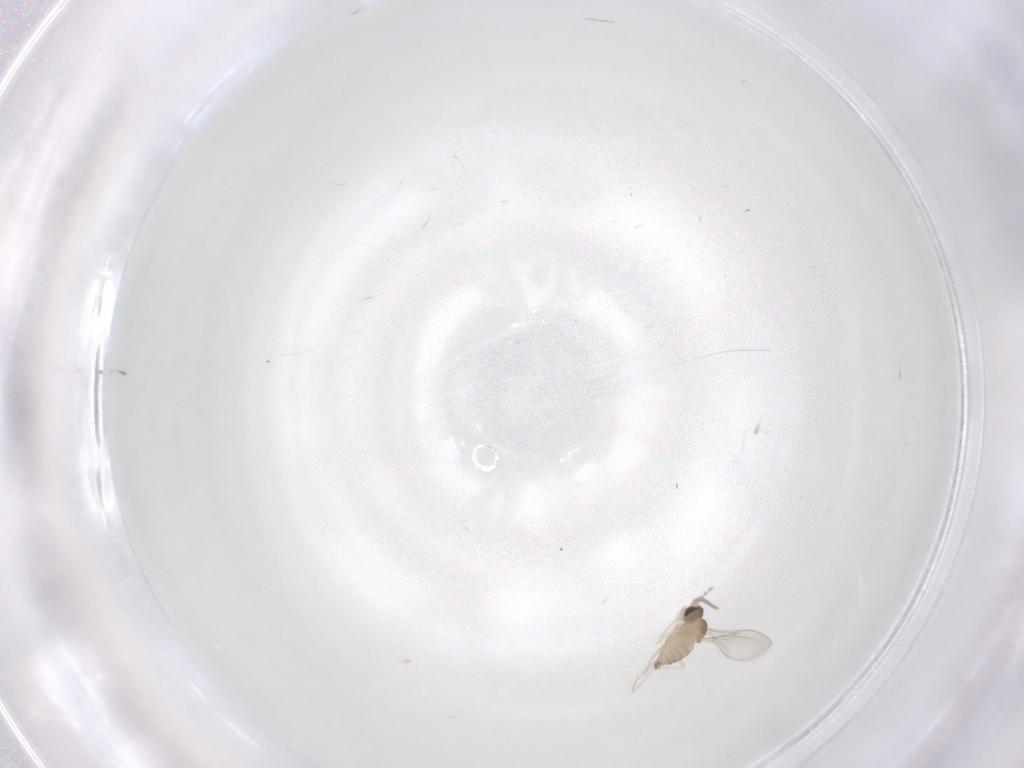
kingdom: Animalia
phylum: Arthropoda
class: Insecta
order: Diptera
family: Cecidomyiidae
